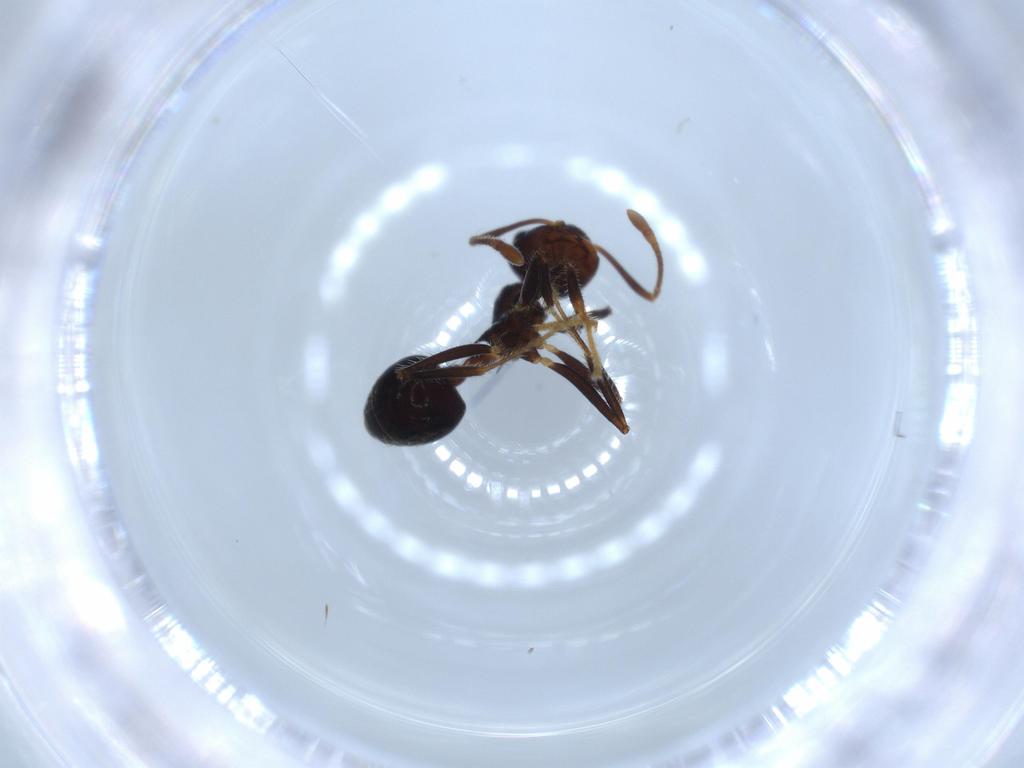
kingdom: Animalia
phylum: Arthropoda
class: Insecta
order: Hymenoptera
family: Formicidae
